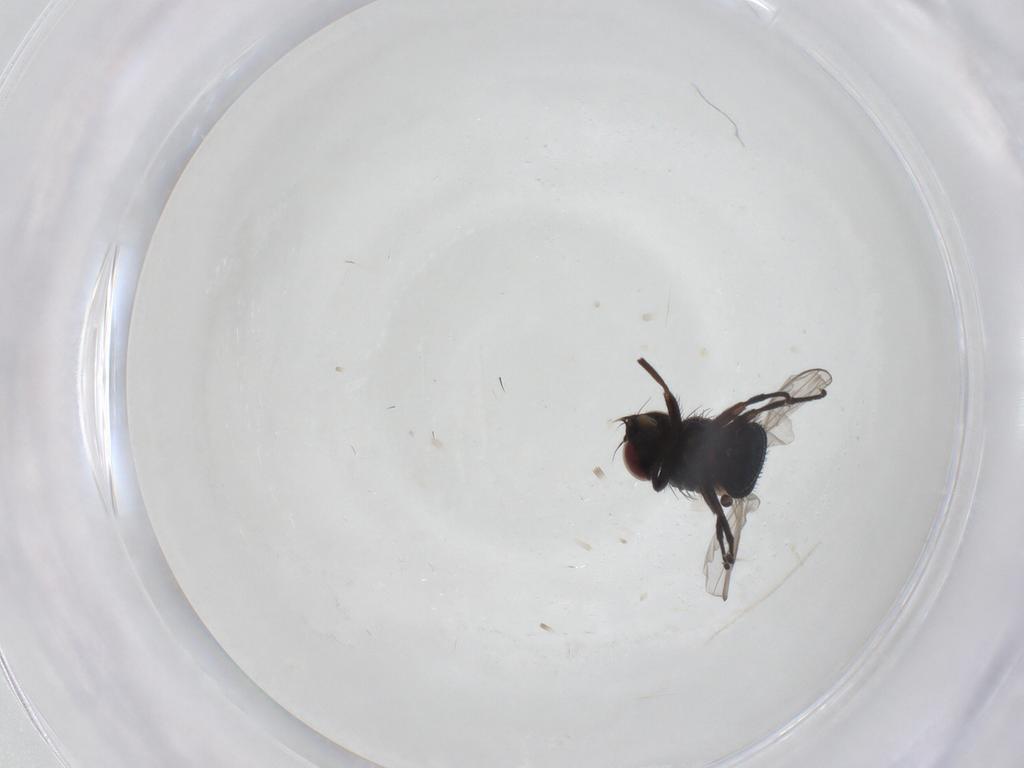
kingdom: Animalia
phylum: Arthropoda
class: Insecta
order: Diptera
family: Agromyzidae
